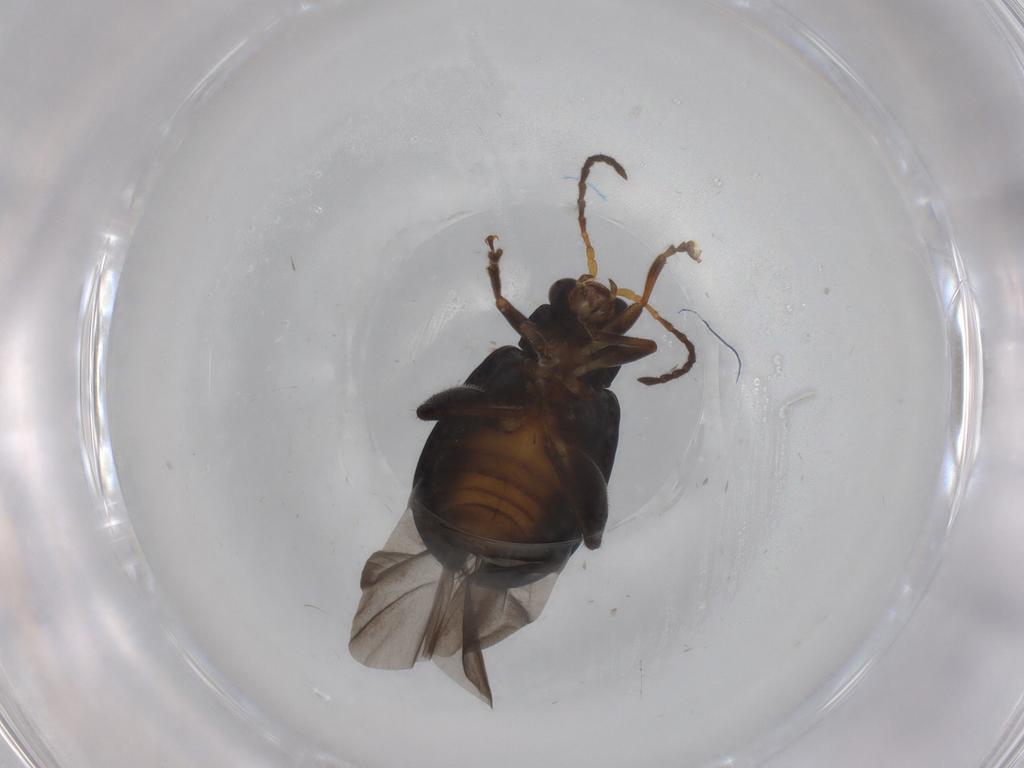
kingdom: Animalia
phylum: Arthropoda
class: Insecta
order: Coleoptera
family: Chrysomelidae
